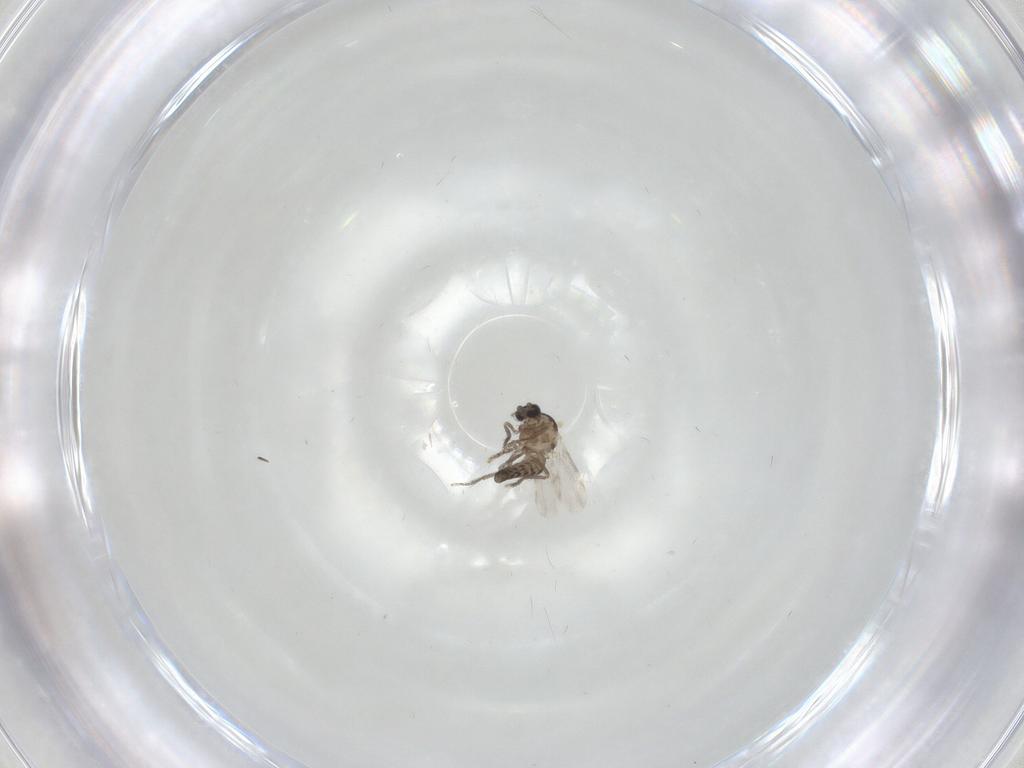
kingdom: Animalia
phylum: Arthropoda
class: Insecta
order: Diptera
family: Ceratopogonidae
